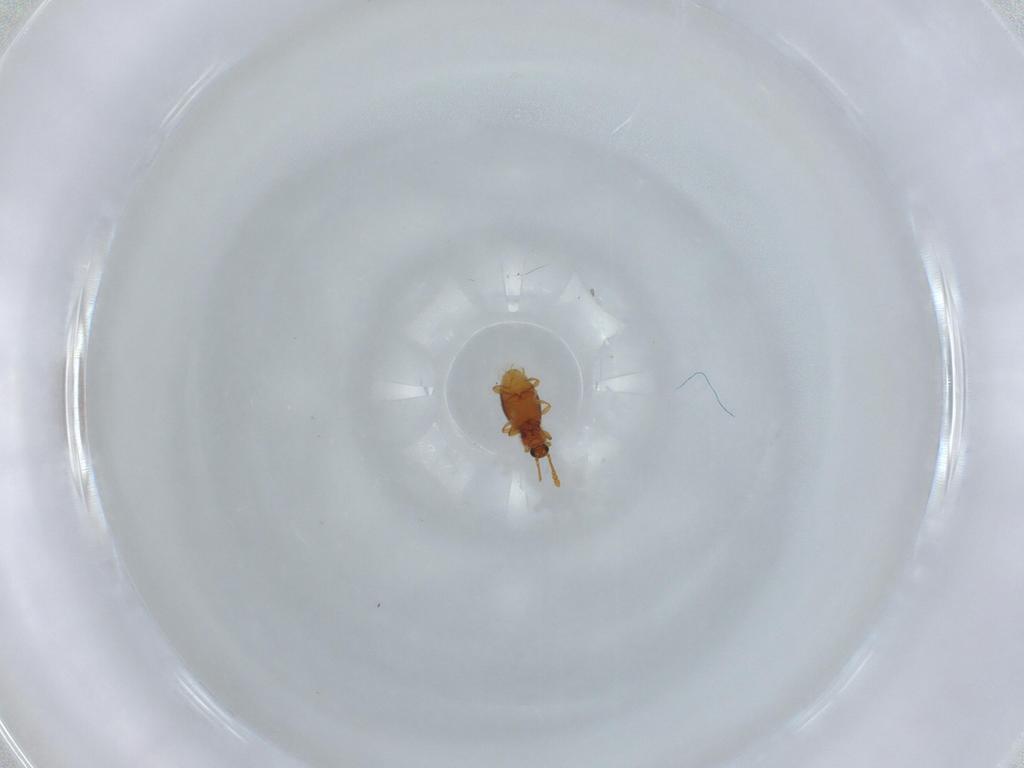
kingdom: Animalia
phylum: Arthropoda
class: Insecta
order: Coleoptera
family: Staphylinidae
